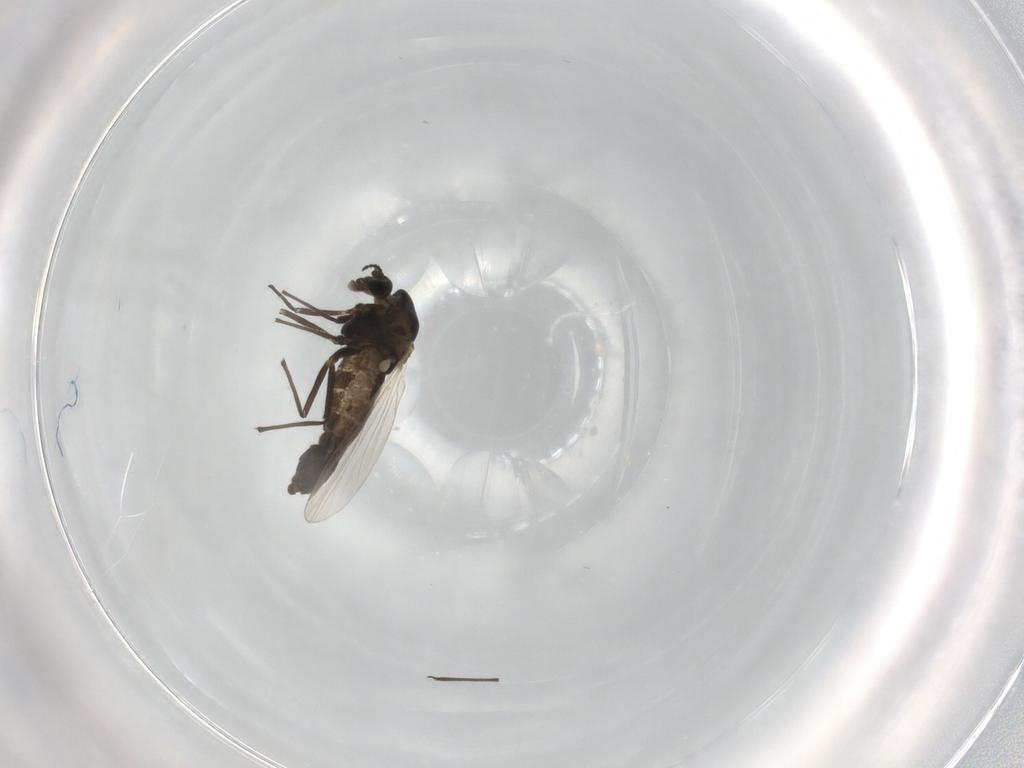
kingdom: Animalia
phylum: Arthropoda
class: Insecta
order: Diptera
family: Chironomidae
